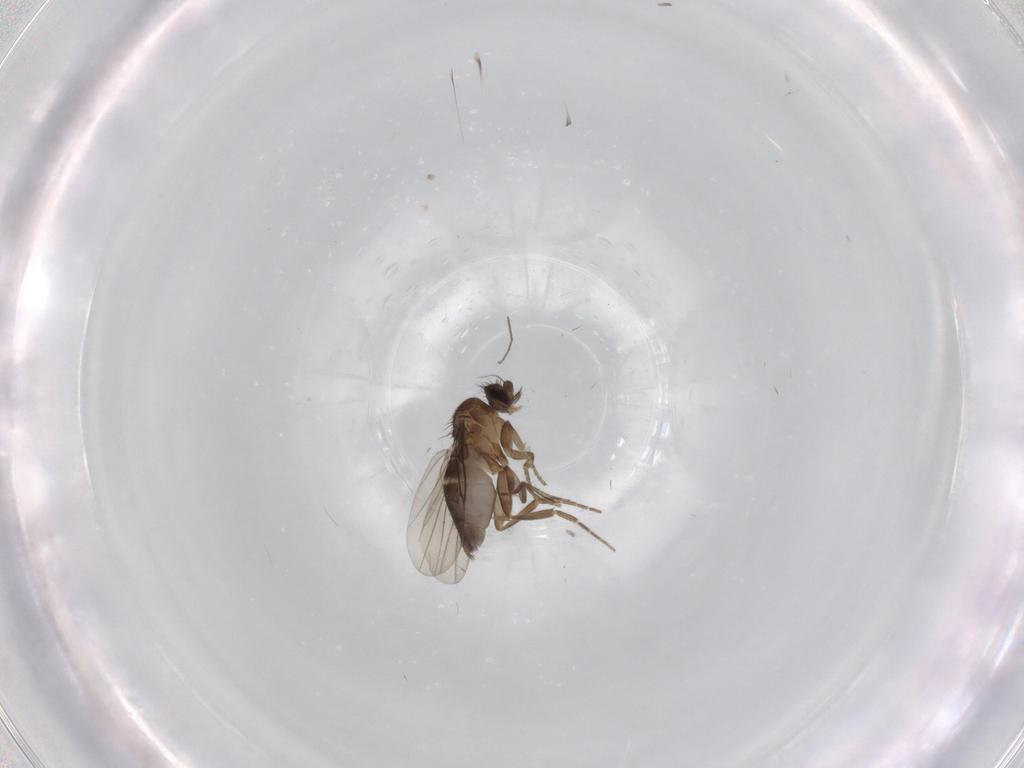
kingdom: Animalia
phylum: Arthropoda
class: Insecta
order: Diptera
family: Phoridae
